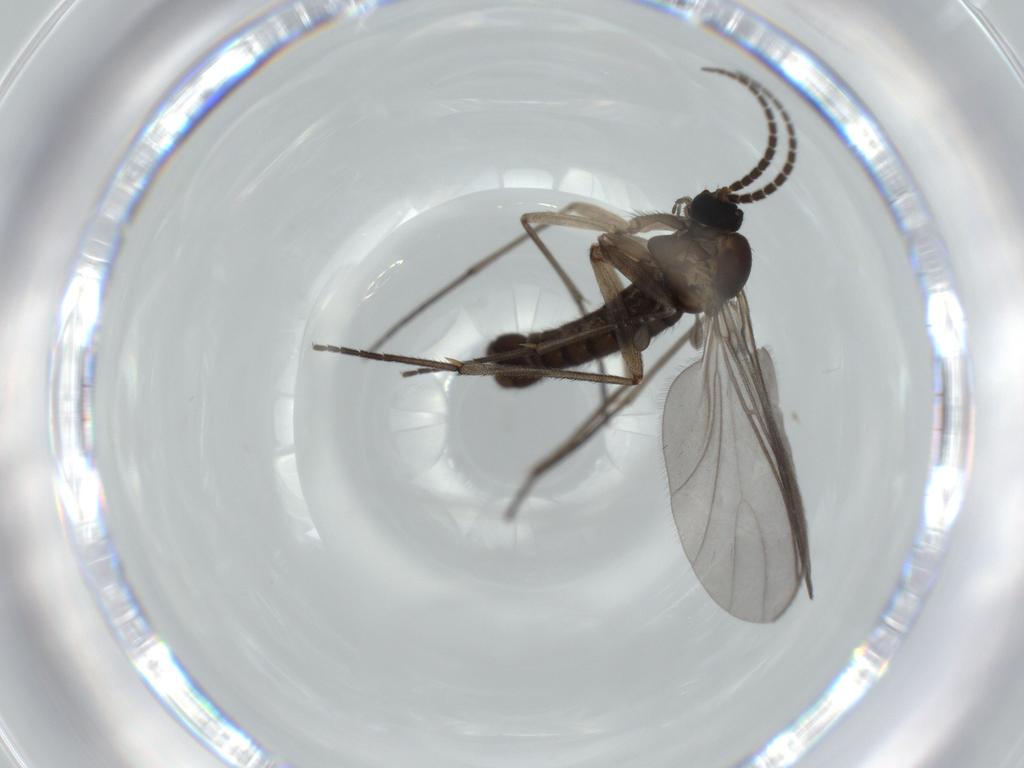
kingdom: Animalia
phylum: Arthropoda
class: Insecta
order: Diptera
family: Sciaridae
